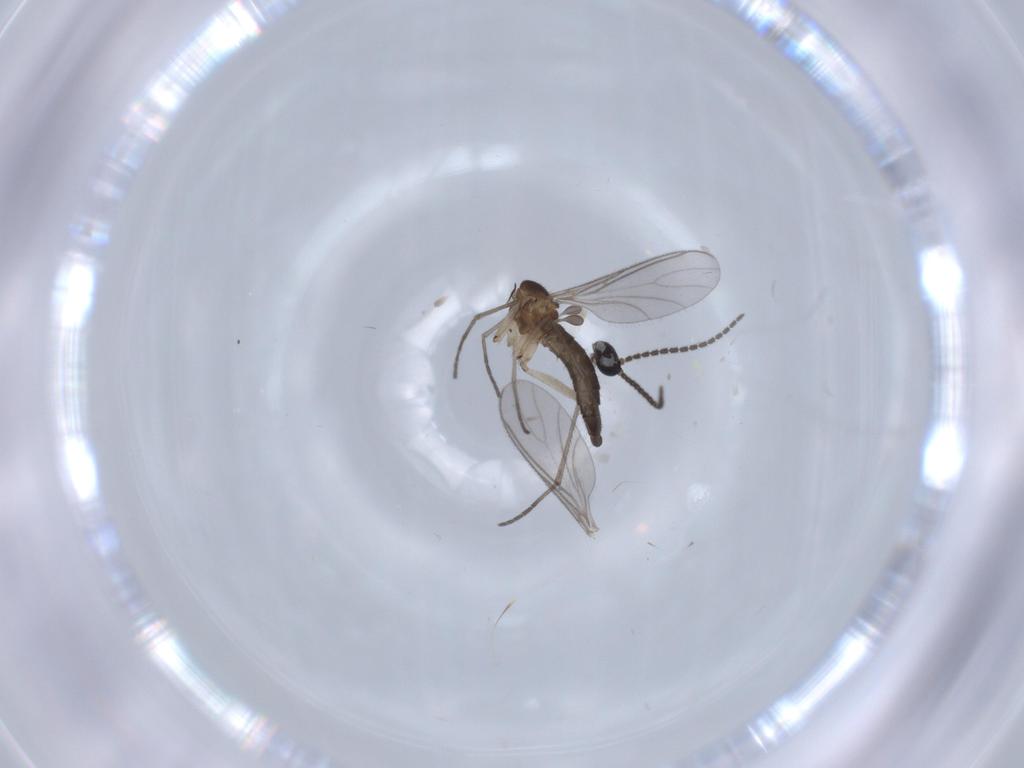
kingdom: Animalia
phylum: Arthropoda
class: Insecta
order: Diptera
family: Sciaridae
